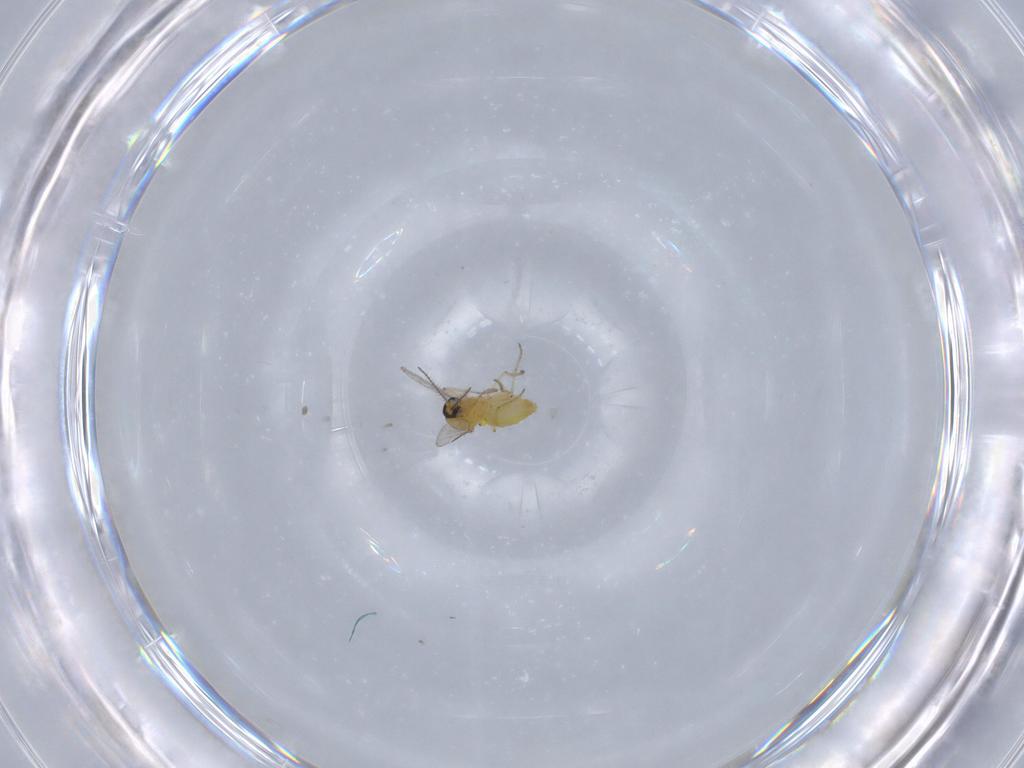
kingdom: Animalia
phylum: Arthropoda
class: Insecta
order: Diptera
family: Ceratopogonidae
